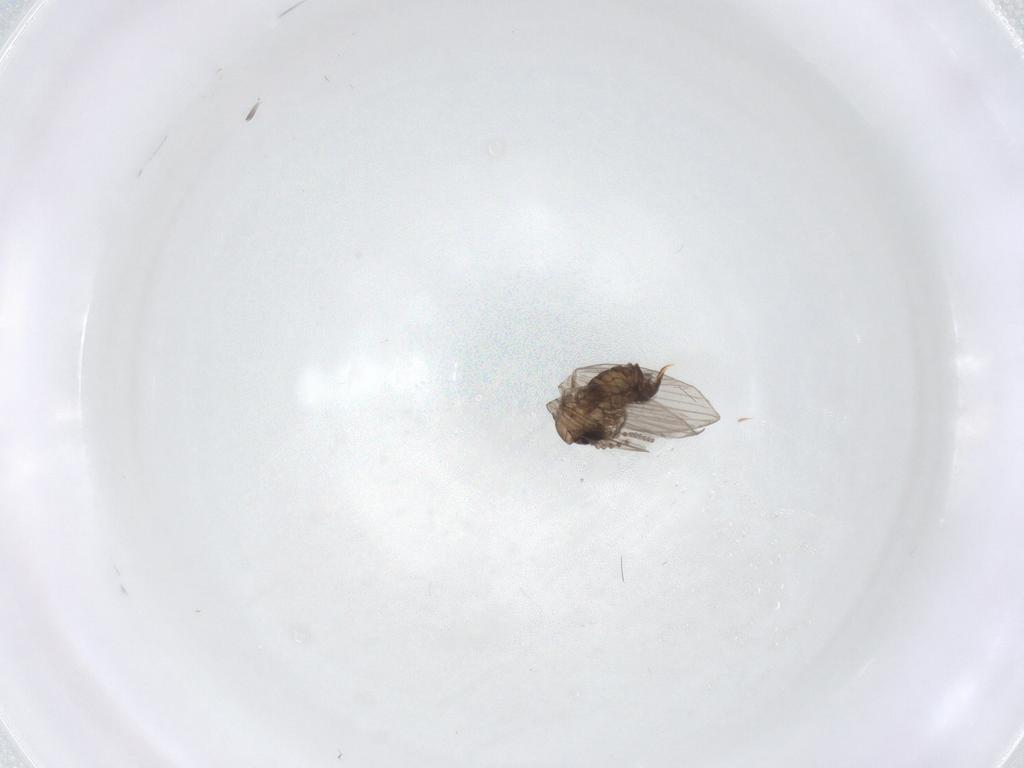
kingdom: Animalia
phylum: Arthropoda
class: Insecta
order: Diptera
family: Psychodidae
